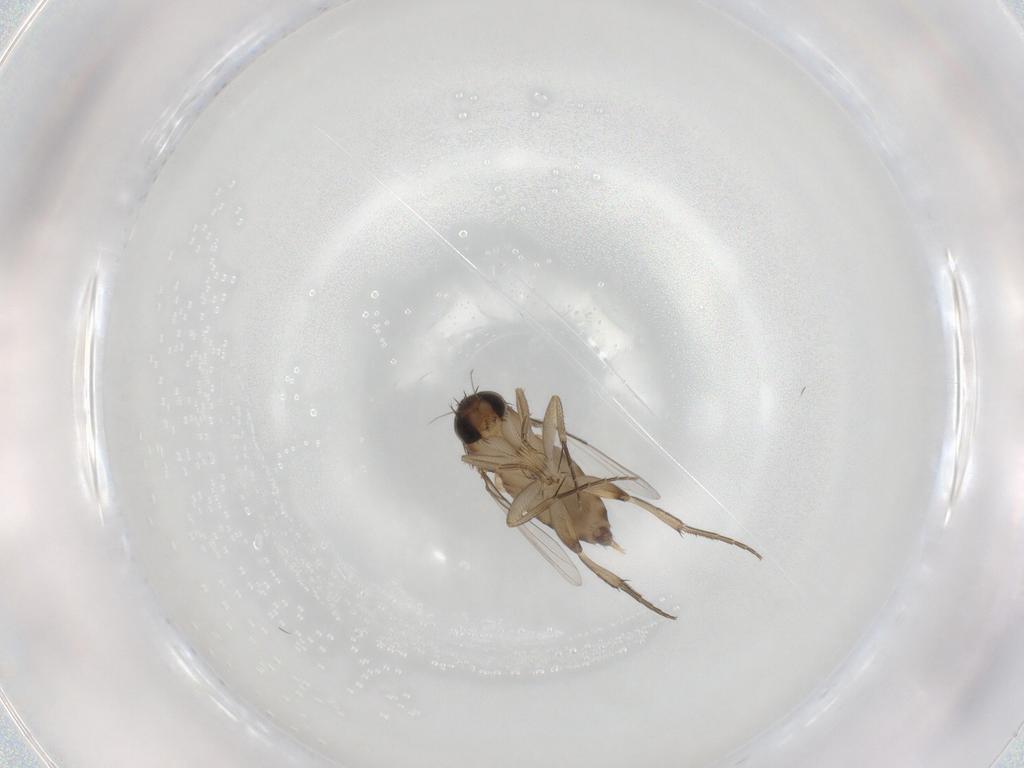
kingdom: Animalia
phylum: Arthropoda
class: Insecta
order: Diptera
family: Phoridae
